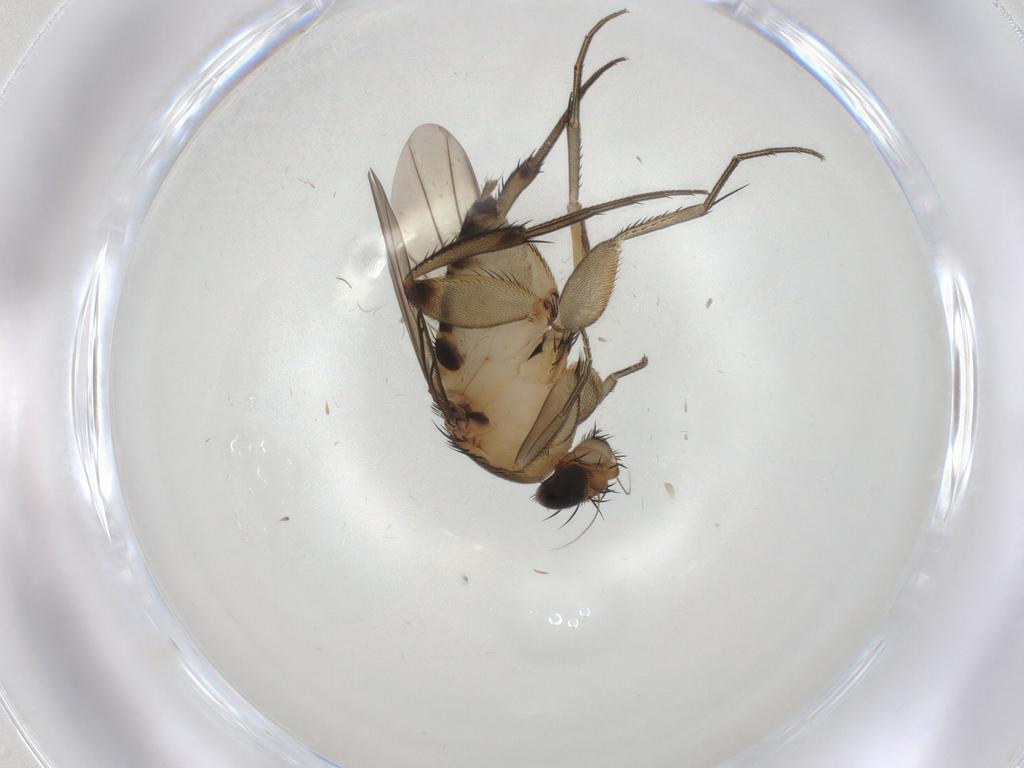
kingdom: Animalia
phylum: Arthropoda
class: Insecta
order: Diptera
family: Phoridae
